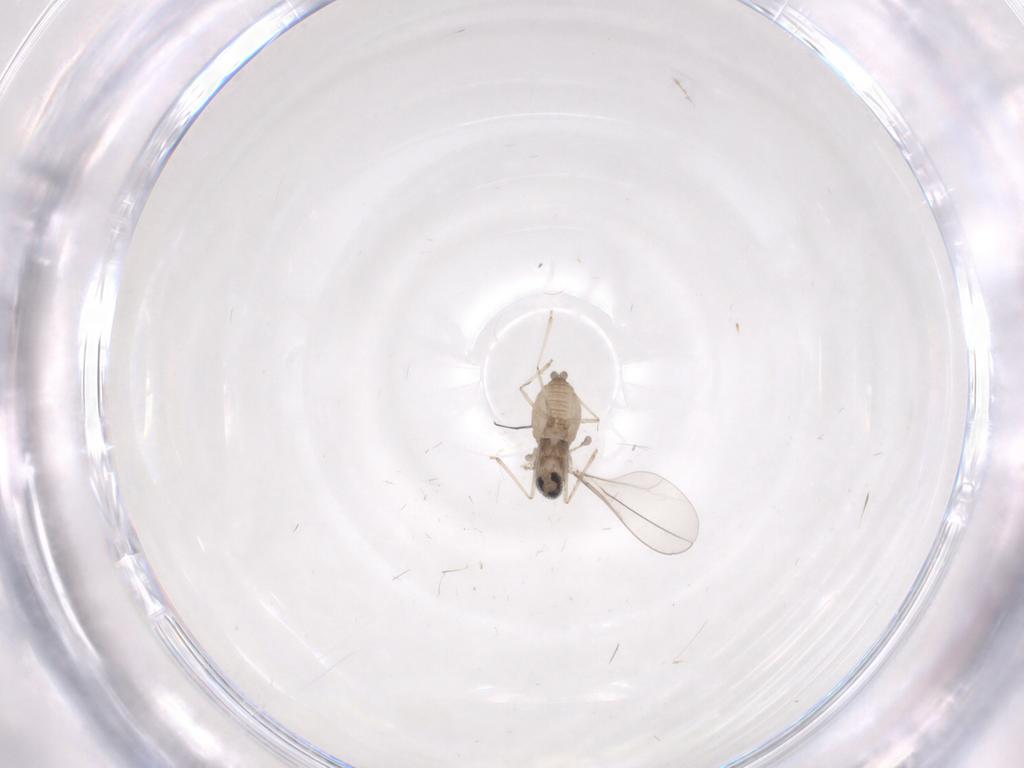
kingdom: Animalia
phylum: Arthropoda
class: Insecta
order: Diptera
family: Cecidomyiidae
